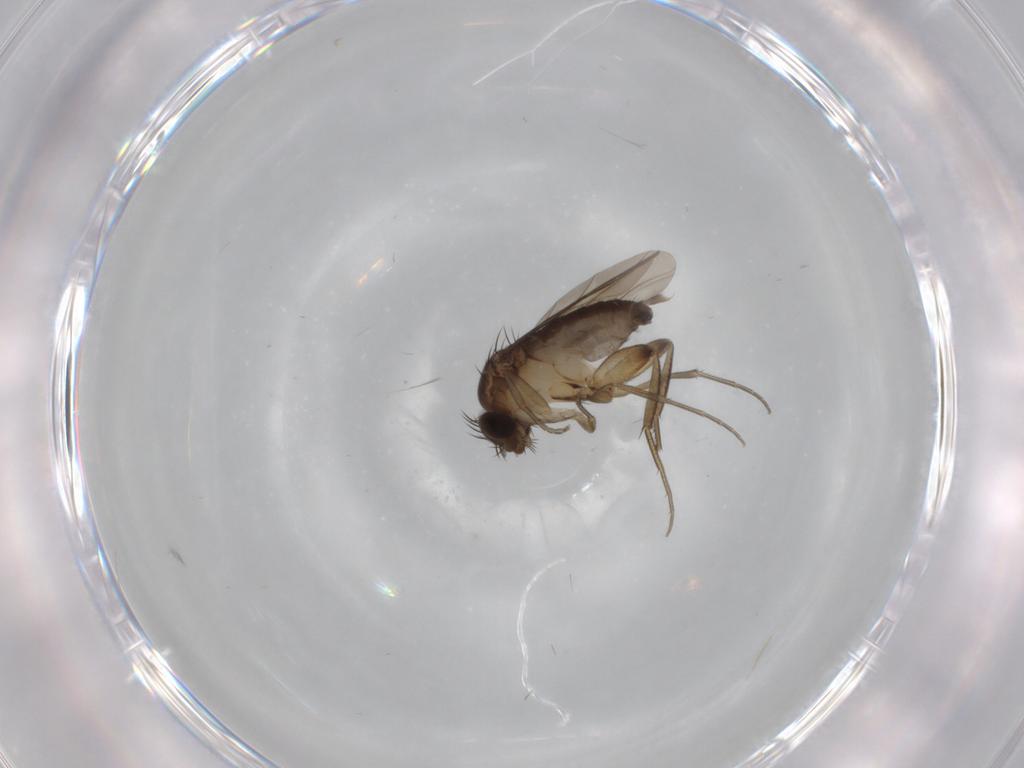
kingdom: Animalia
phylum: Arthropoda
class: Insecta
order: Diptera
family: Phoridae
